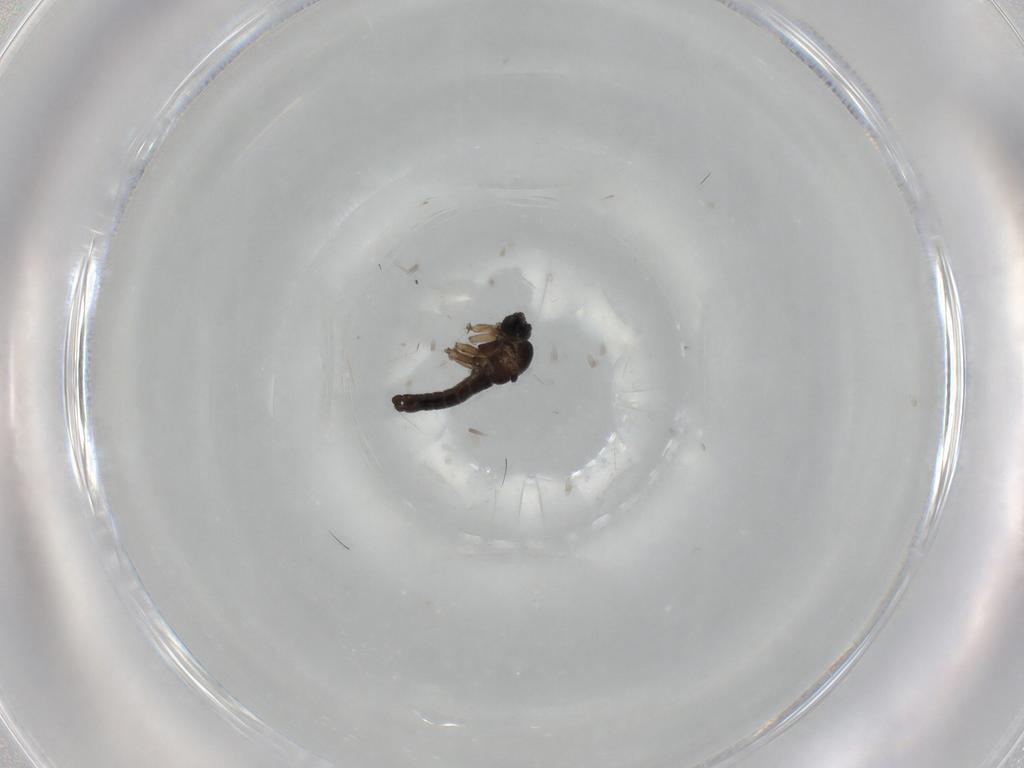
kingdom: Animalia
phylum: Arthropoda
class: Insecta
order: Diptera
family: Sciaridae
